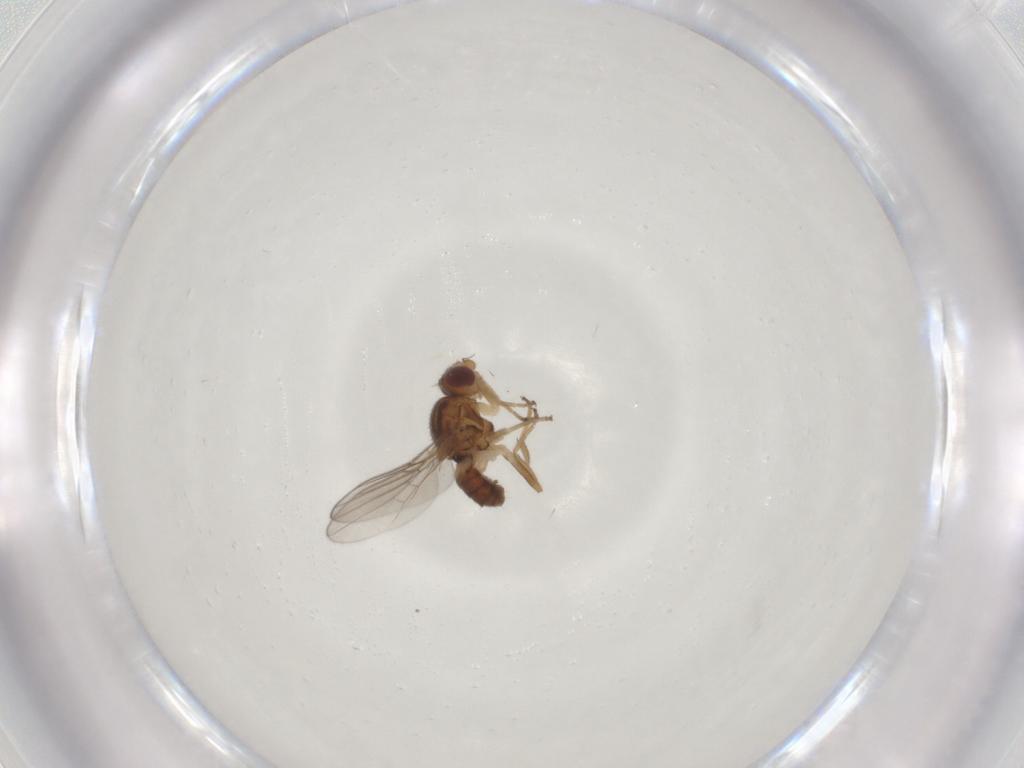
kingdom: Animalia
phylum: Arthropoda
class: Insecta
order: Diptera
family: Chloropidae
